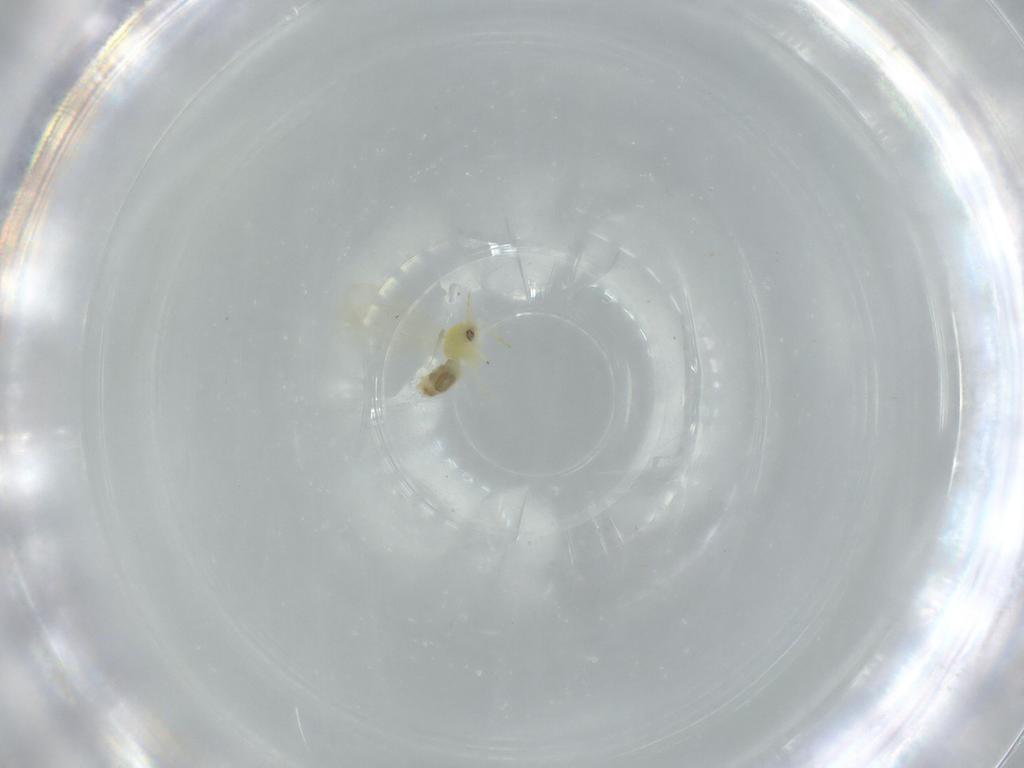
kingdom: Animalia
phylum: Arthropoda
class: Insecta
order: Hemiptera
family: Aleyrodidae
